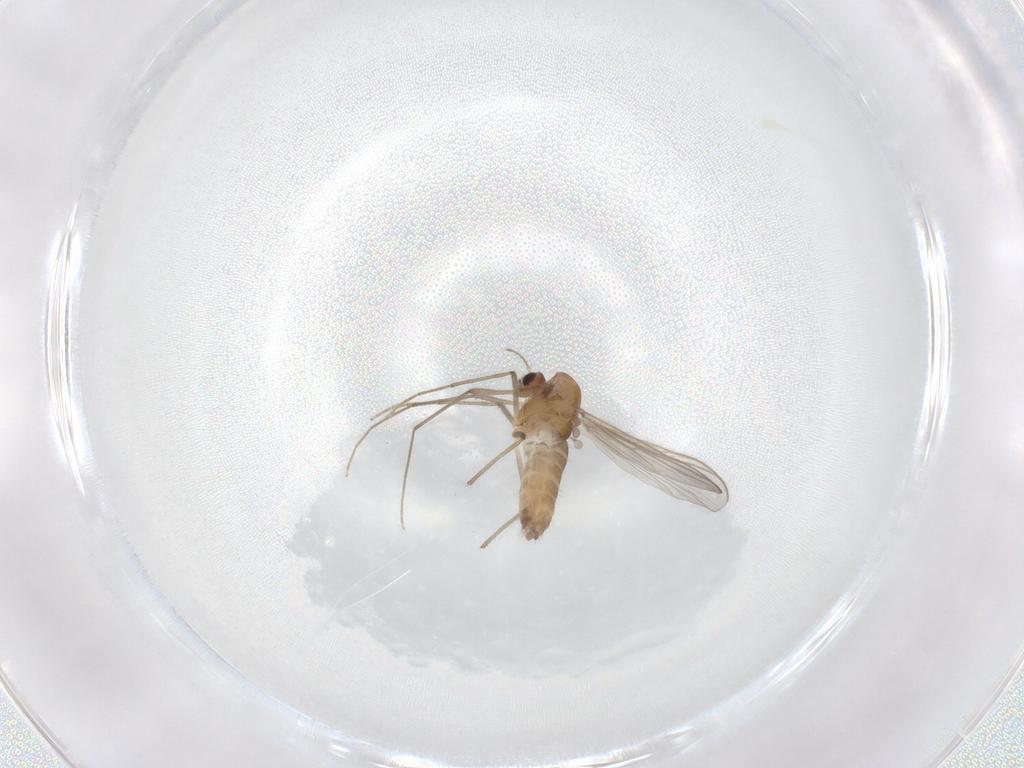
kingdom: Animalia
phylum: Arthropoda
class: Insecta
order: Diptera
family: Chironomidae
